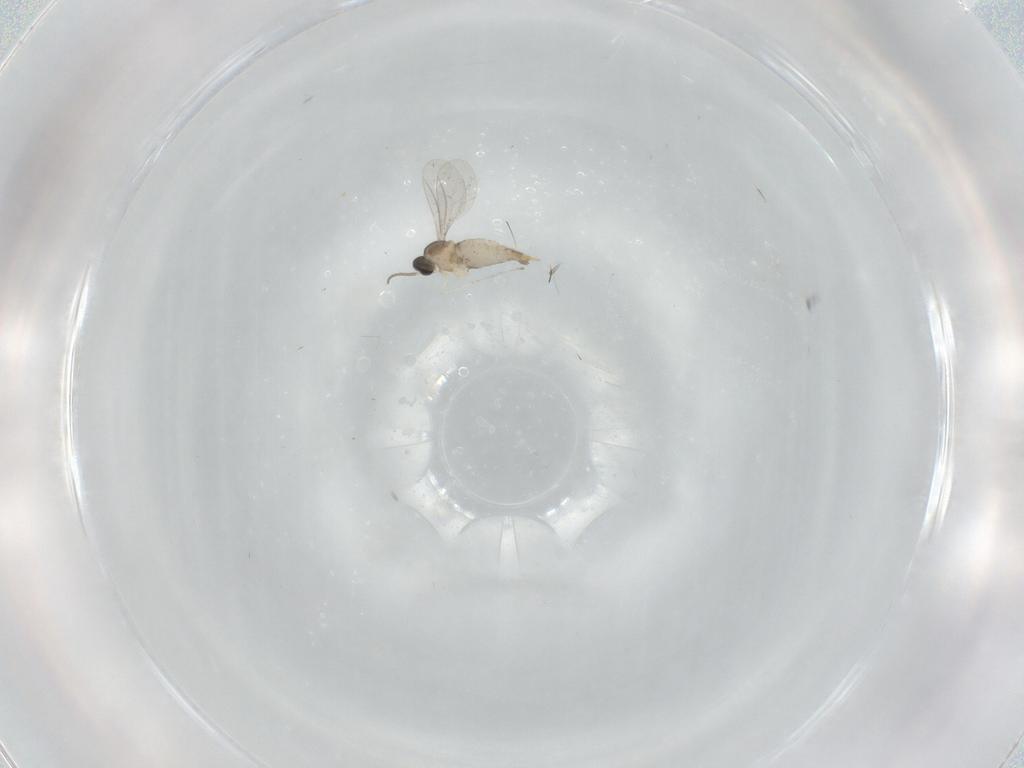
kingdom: Animalia
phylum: Arthropoda
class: Insecta
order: Diptera
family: Cecidomyiidae
